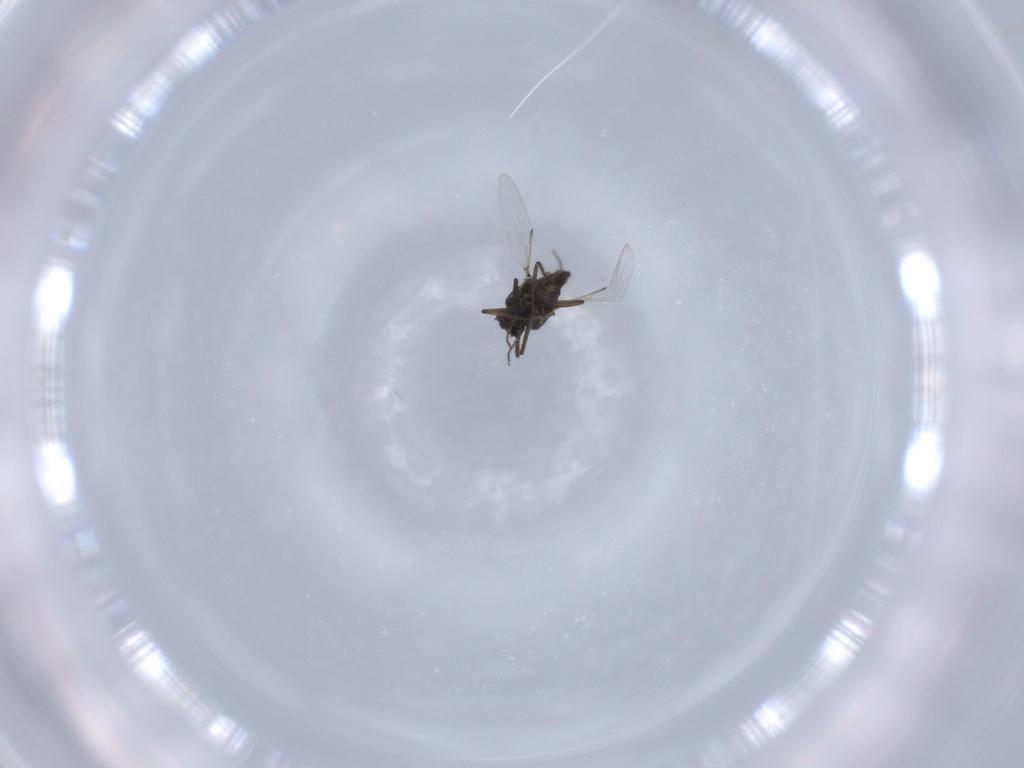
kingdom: Animalia
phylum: Arthropoda
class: Insecta
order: Diptera
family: Ceratopogonidae
